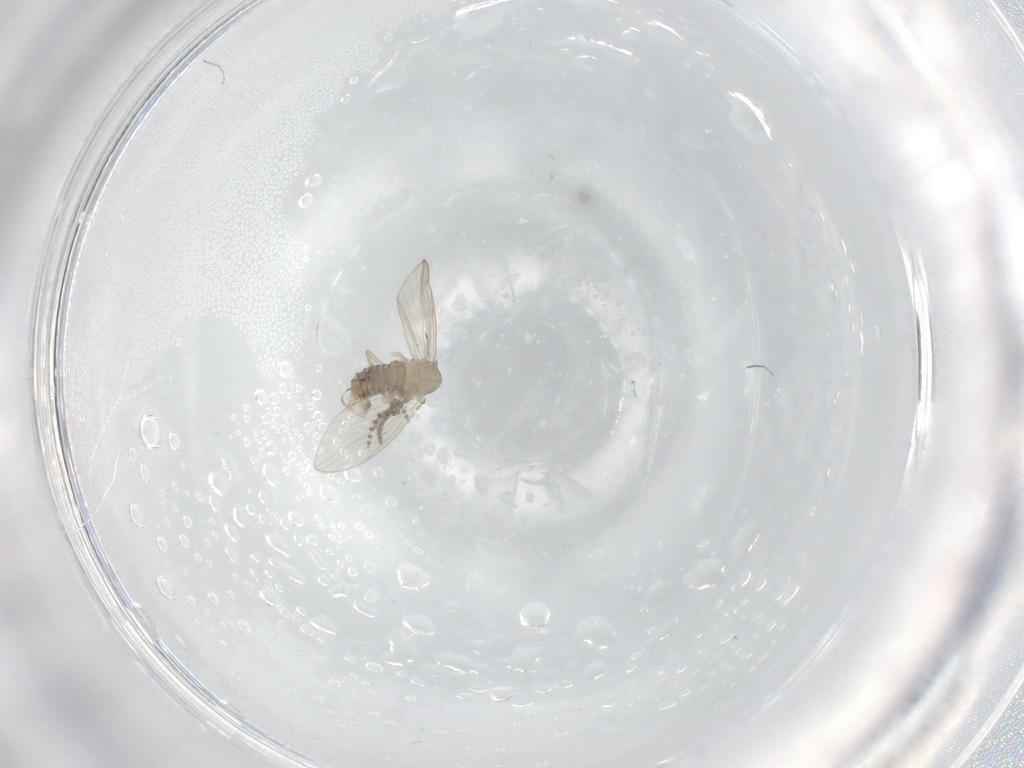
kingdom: Animalia
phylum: Arthropoda
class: Insecta
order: Diptera
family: Psychodidae
